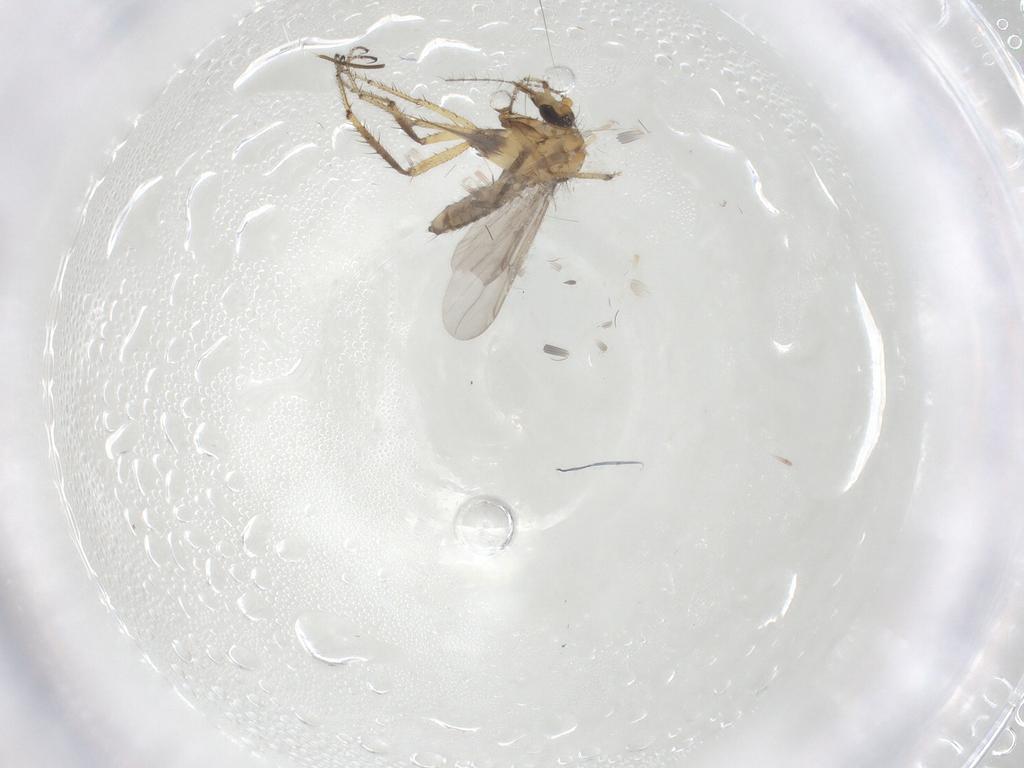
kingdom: Animalia
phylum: Arthropoda
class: Insecta
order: Diptera
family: Ceratopogonidae
